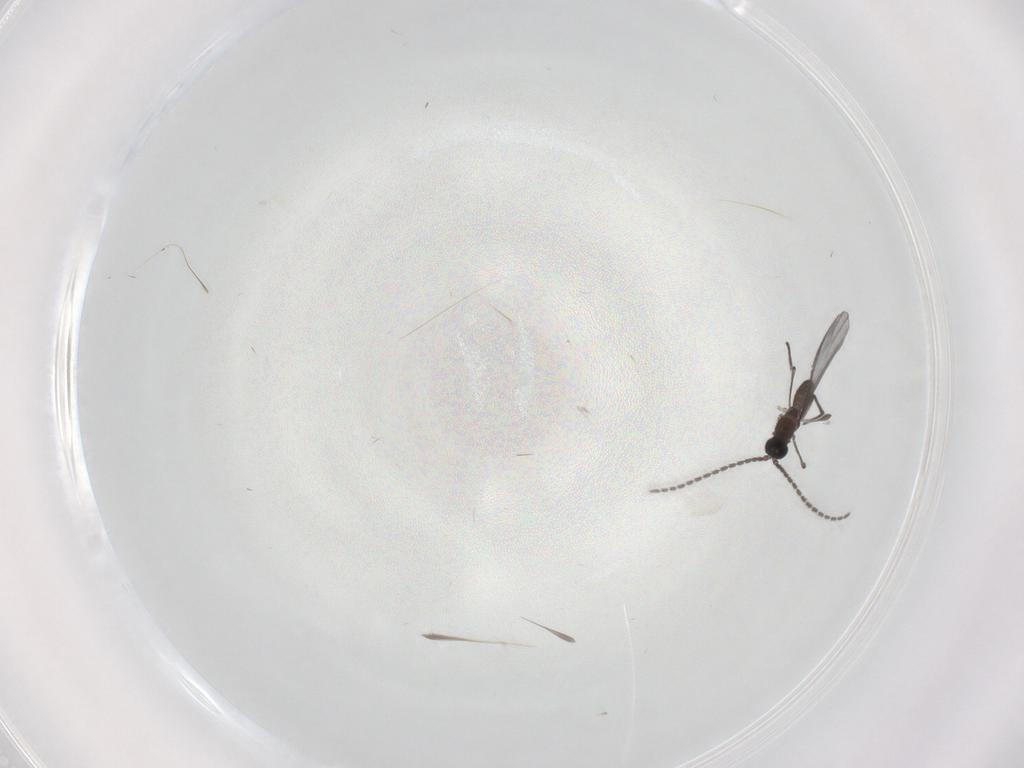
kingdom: Animalia
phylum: Arthropoda
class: Insecta
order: Diptera
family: Sciaridae
